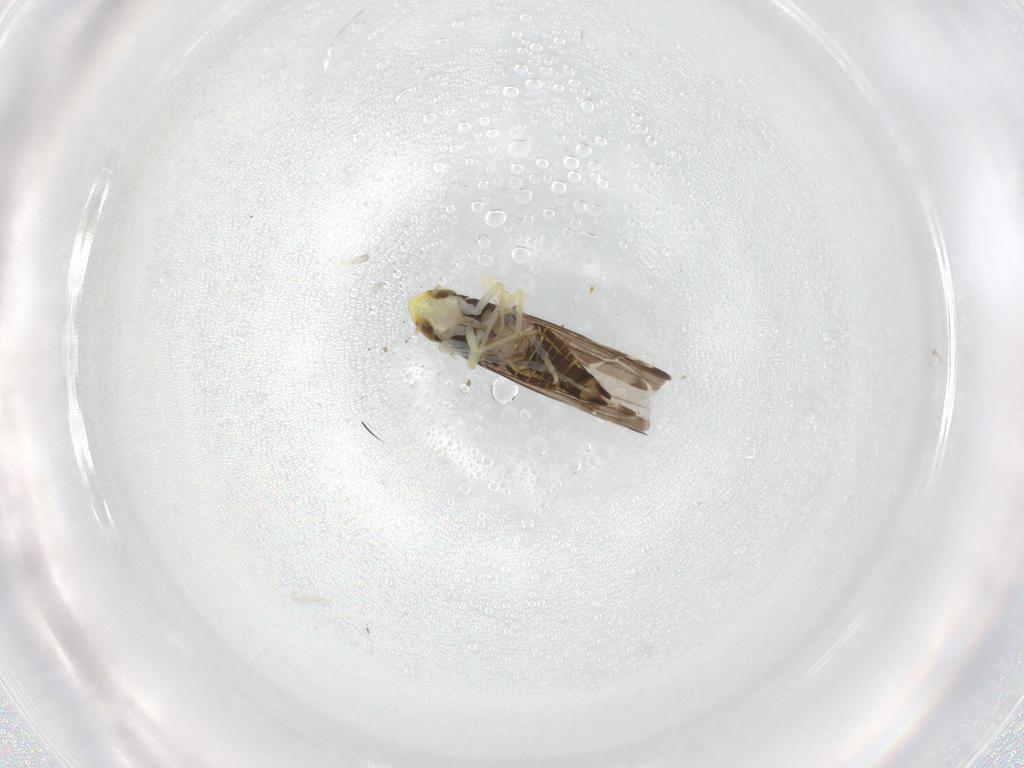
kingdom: Animalia
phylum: Arthropoda
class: Insecta
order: Hemiptera
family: Cicadellidae
